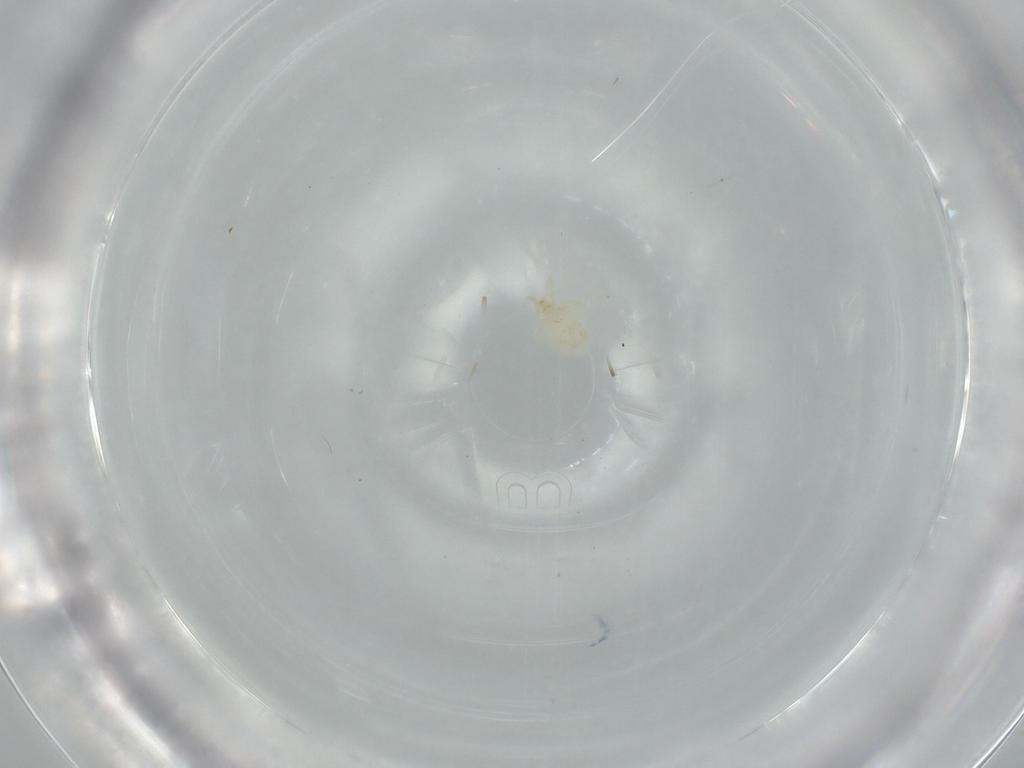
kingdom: Animalia
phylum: Arthropoda
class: Arachnida
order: Trombidiformes
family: Erythraeidae
